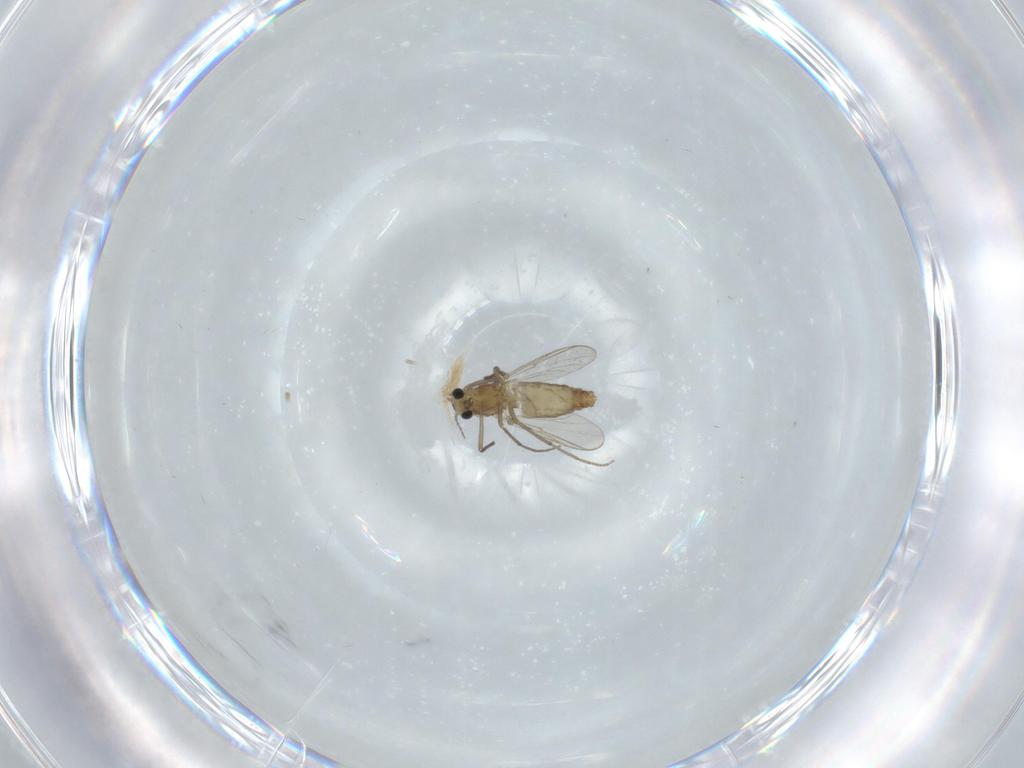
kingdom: Animalia
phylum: Arthropoda
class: Insecta
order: Diptera
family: Chironomidae
